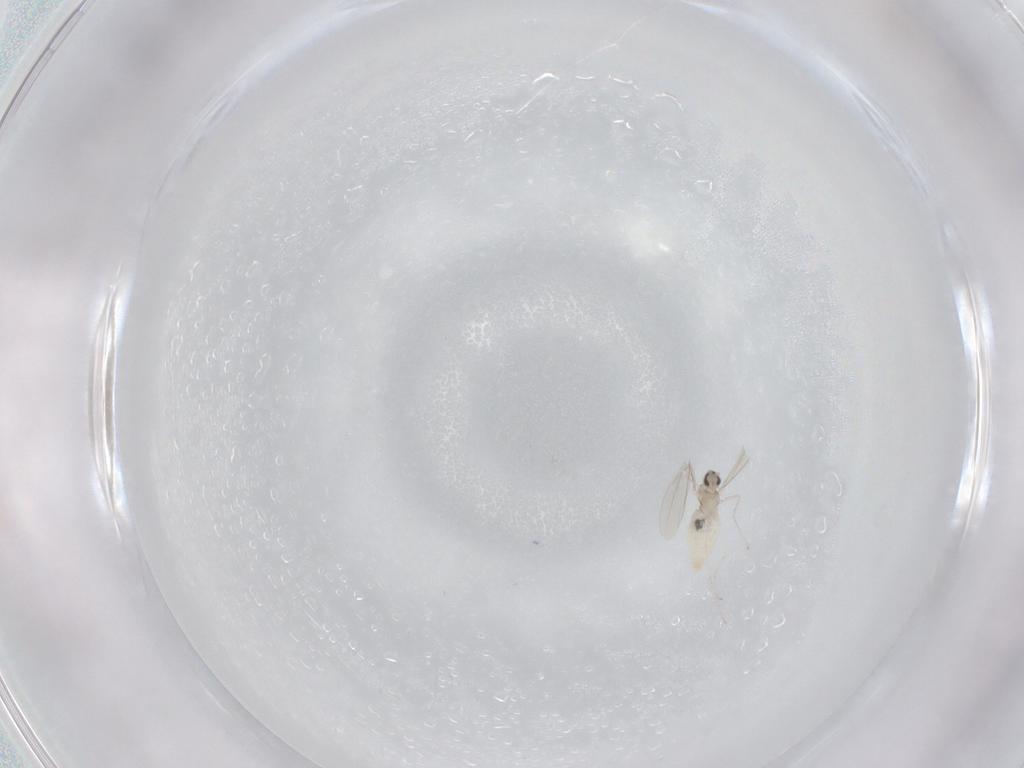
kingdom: Animalia
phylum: Arthropoda
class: Insecta
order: Diptera
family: Cecidomyiidae
